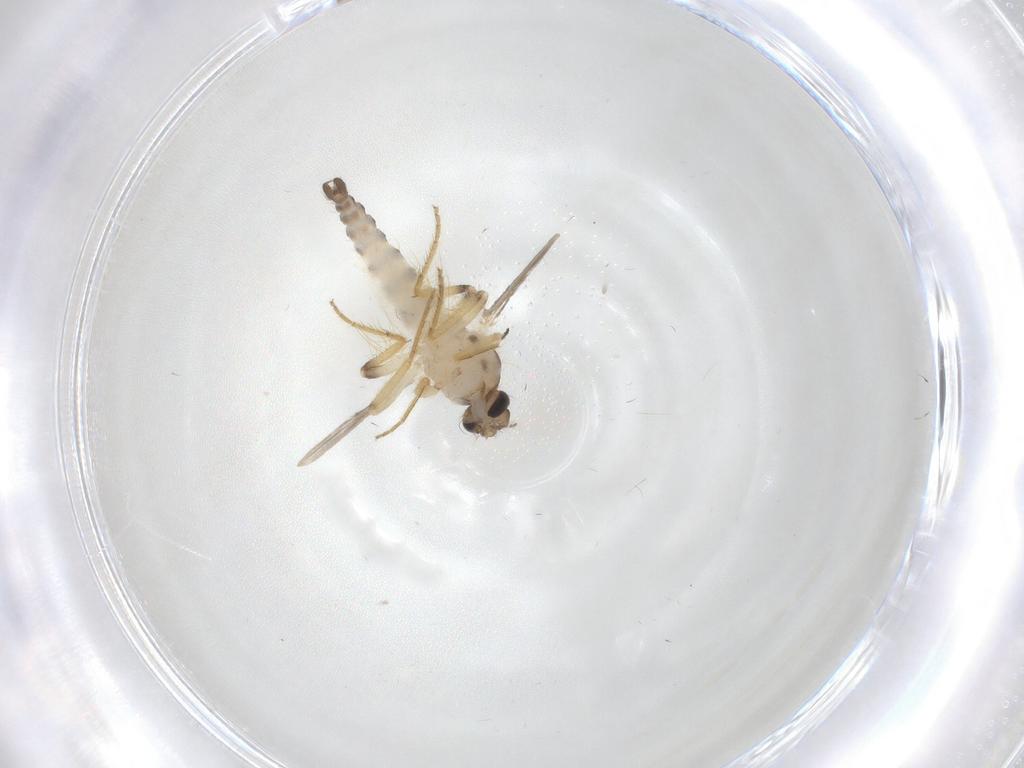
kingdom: Animalia
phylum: Arthropoda
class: Insecta
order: Diptera
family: Ceratopogonidae
